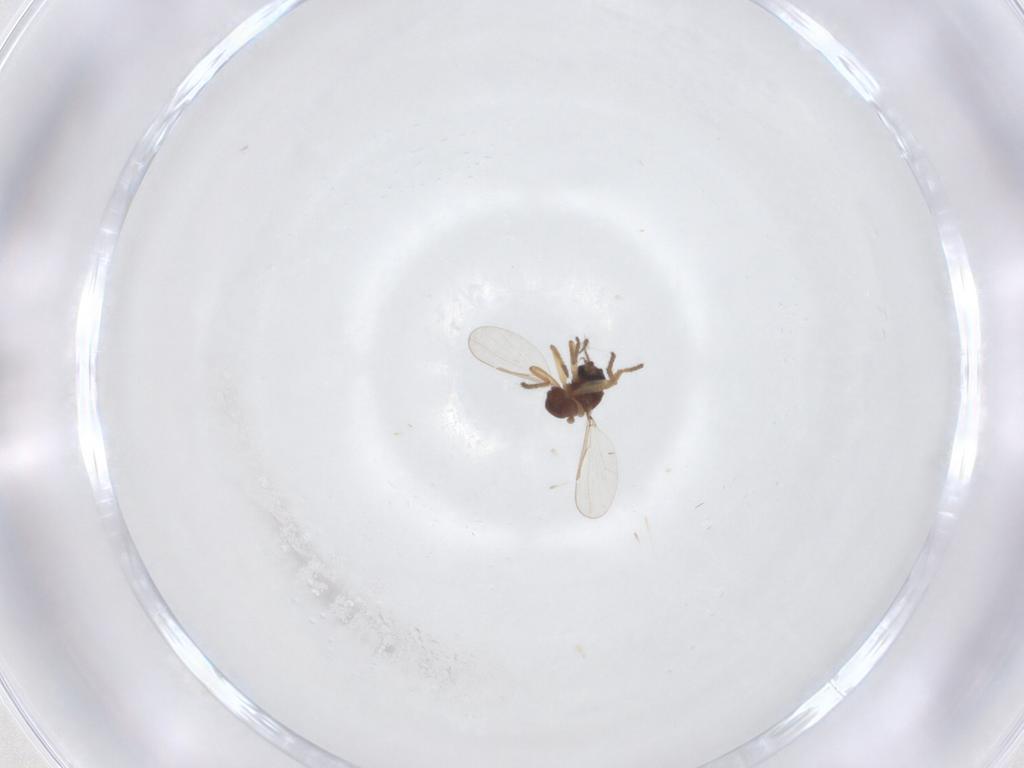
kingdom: Animalia
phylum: Arthropoda
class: Insecta
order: Diptera
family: Ceratopogonidae
